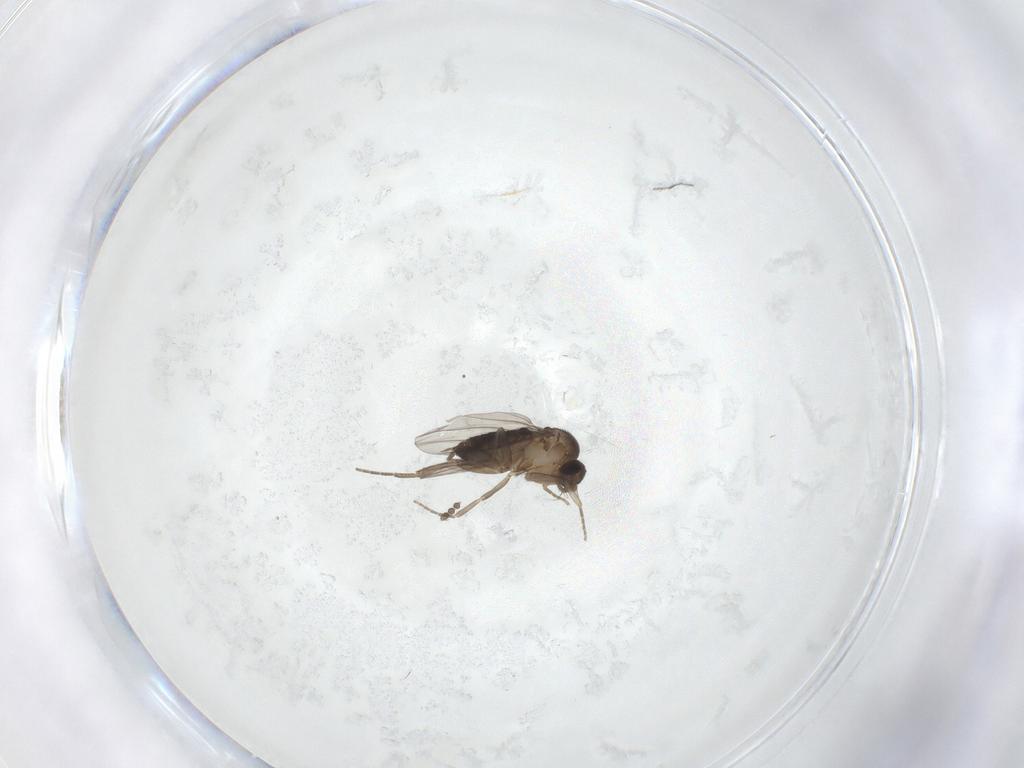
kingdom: Animalia
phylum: Arthropoda
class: Insecta
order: Diptera
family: Phoridae
